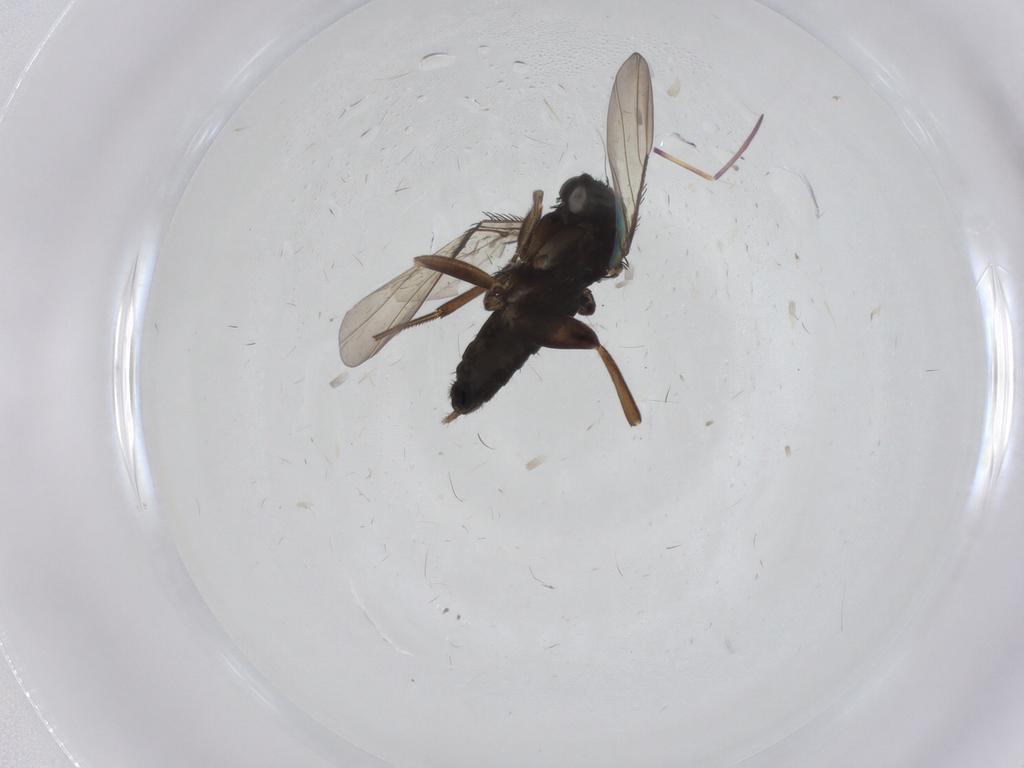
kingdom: Animalia
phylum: Arthropoda
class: Insecta
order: Diptera
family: Phoridae
